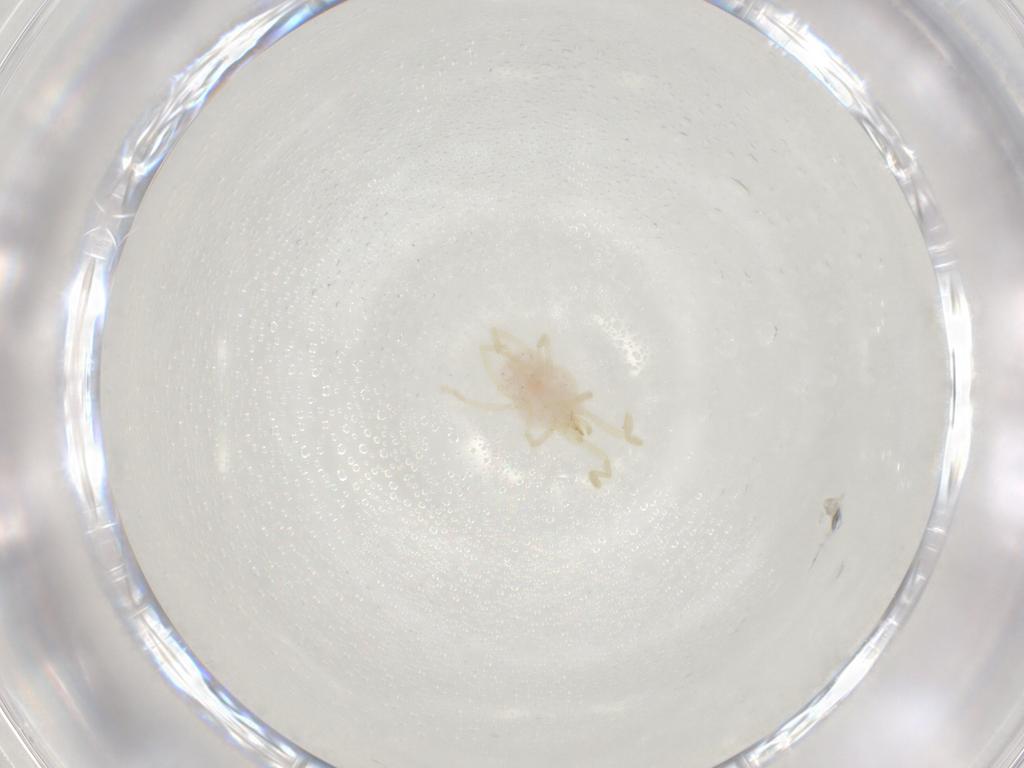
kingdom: Animalia
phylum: Arthropoda
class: Arachnida
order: Trombidiformes
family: Erythraeidae
